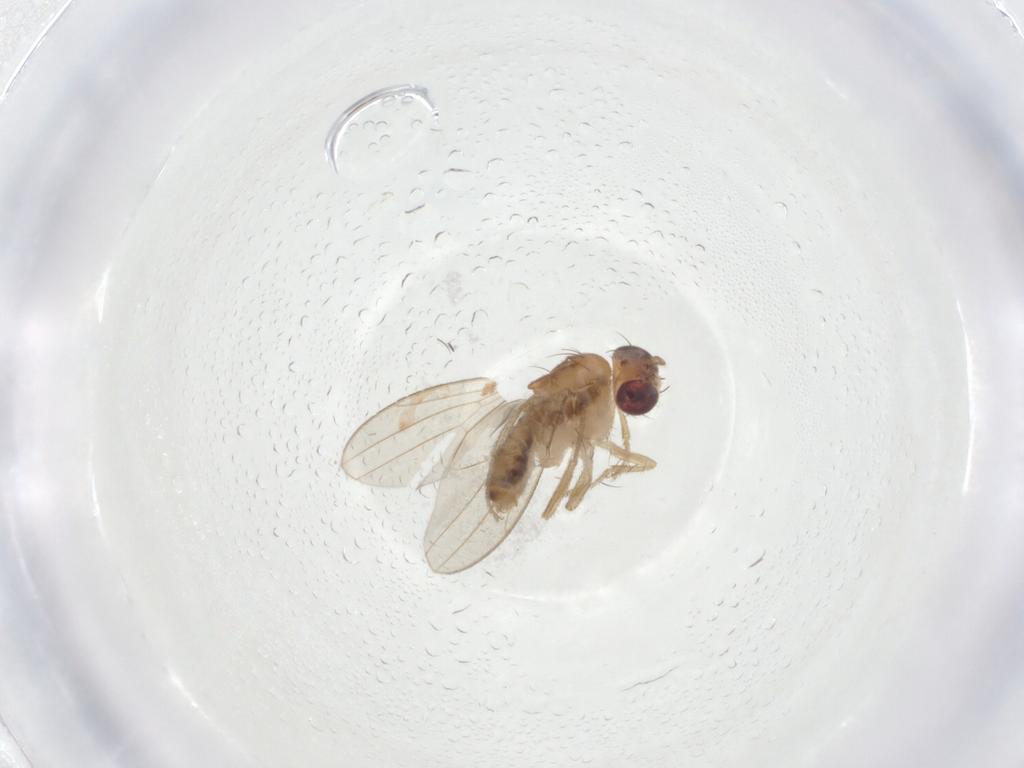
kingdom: Animalia
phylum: Arthropoda
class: Insecta
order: Diptera
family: Drosophilidae
